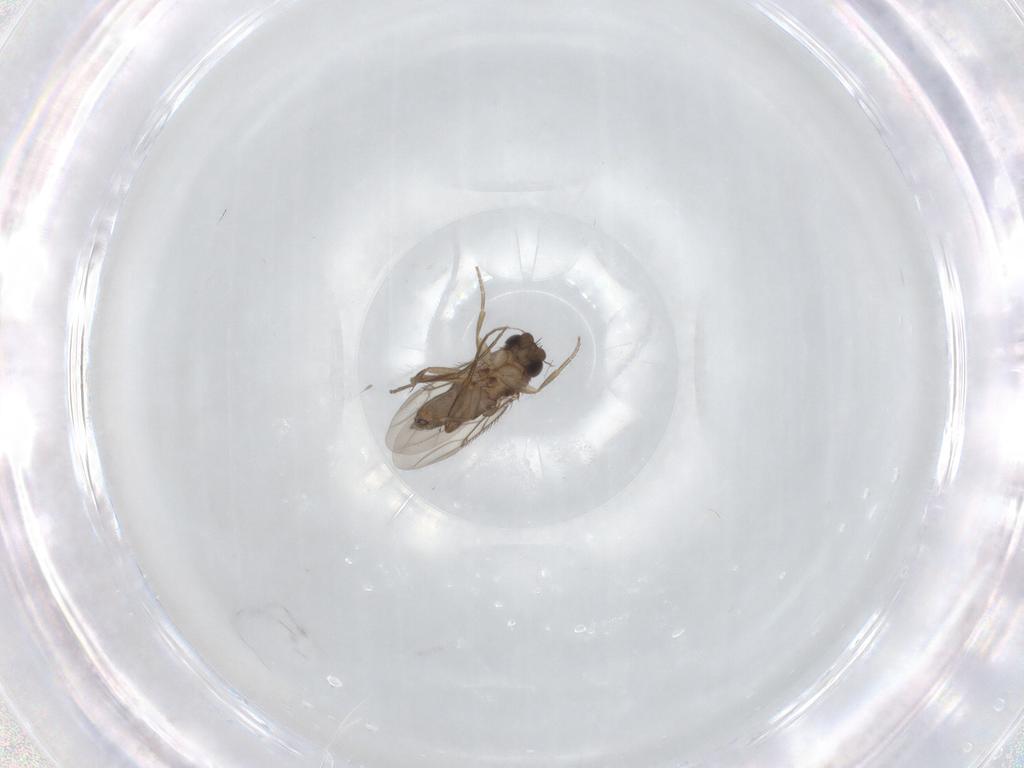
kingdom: Animalia
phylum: Arthropoda
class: Insecta
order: Diptera
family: Phoridae
